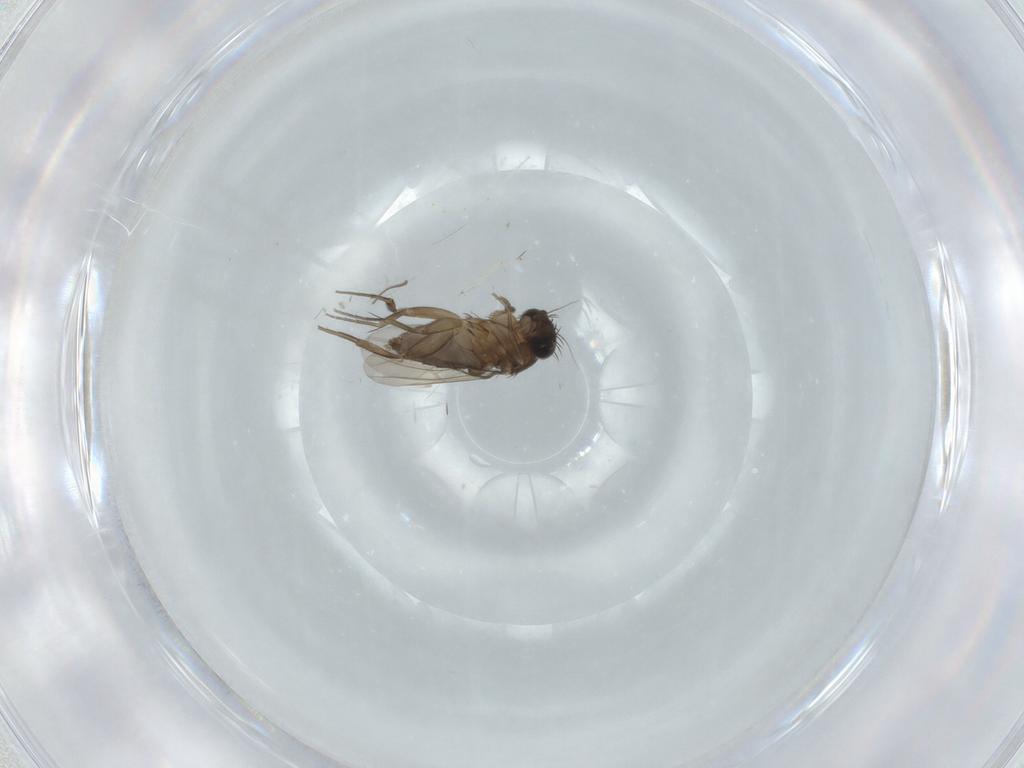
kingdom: Animalia
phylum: Arthropoda
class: Insecta
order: Diptera
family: Phoridae
